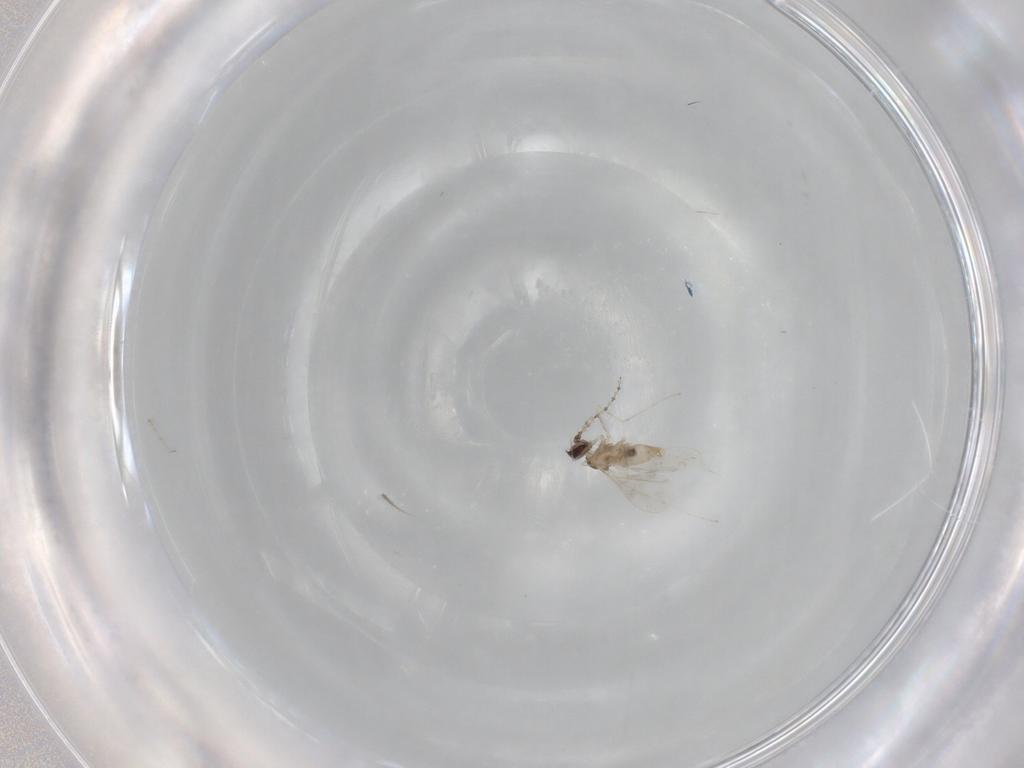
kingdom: Animalia
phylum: Arthropoda
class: Insecta
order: Diptera
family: Cecidomyiidae
